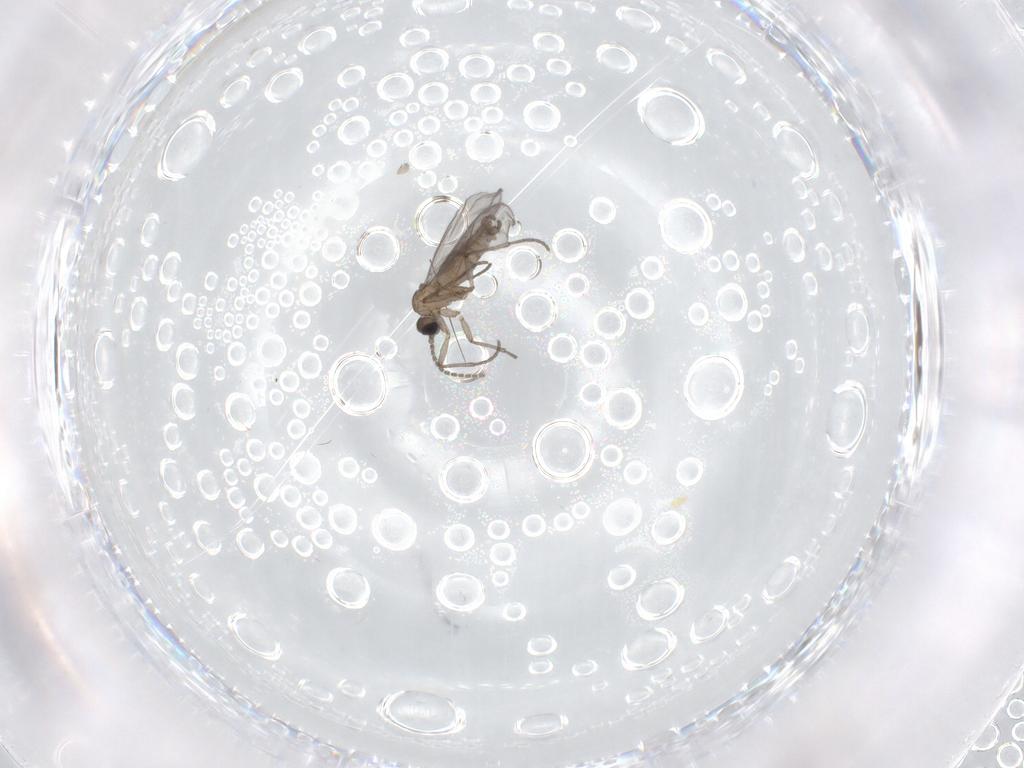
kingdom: Animalia
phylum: Arthropoda
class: Insecta
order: Diptera
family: Sciaridae
